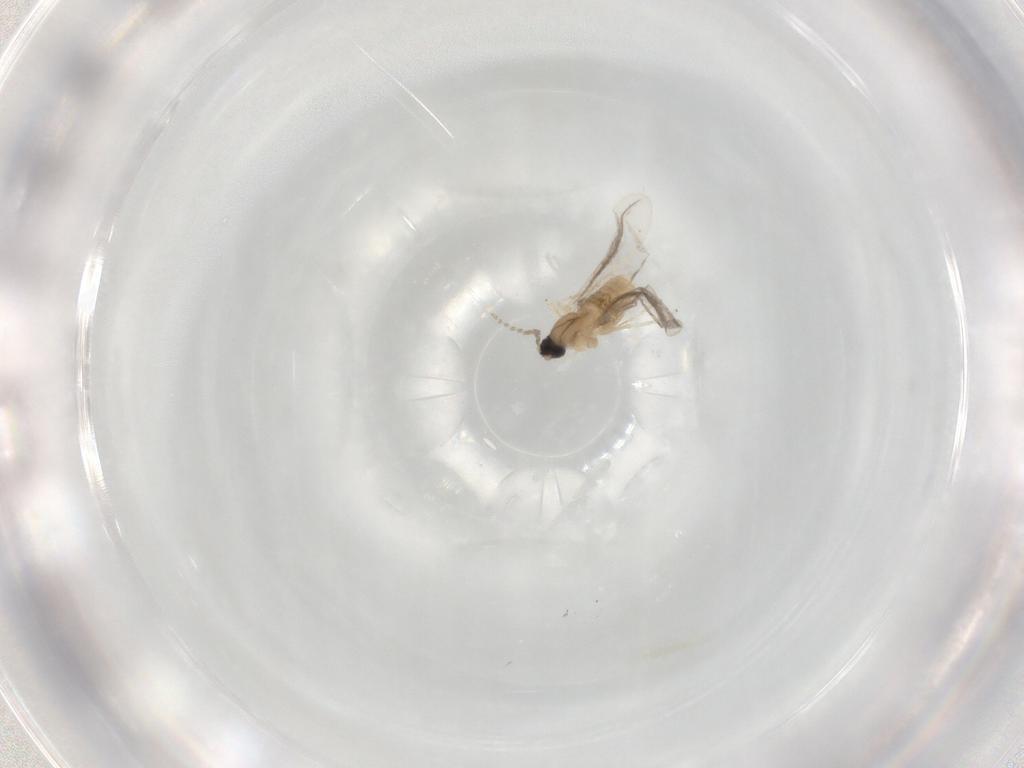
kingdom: Animalia
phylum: Arthropoda
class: Insecta
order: Diptera
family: Cecidomyiidae
